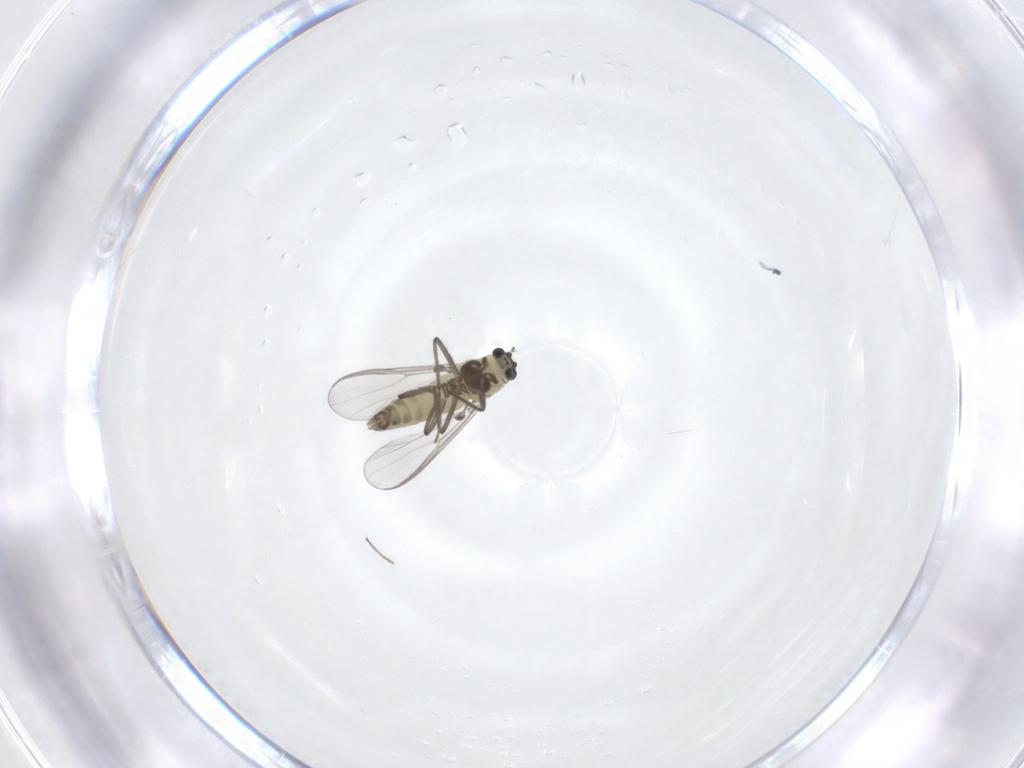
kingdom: Animalia
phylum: Arthropoda
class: Insecta
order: Diptera
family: Chironomidae
